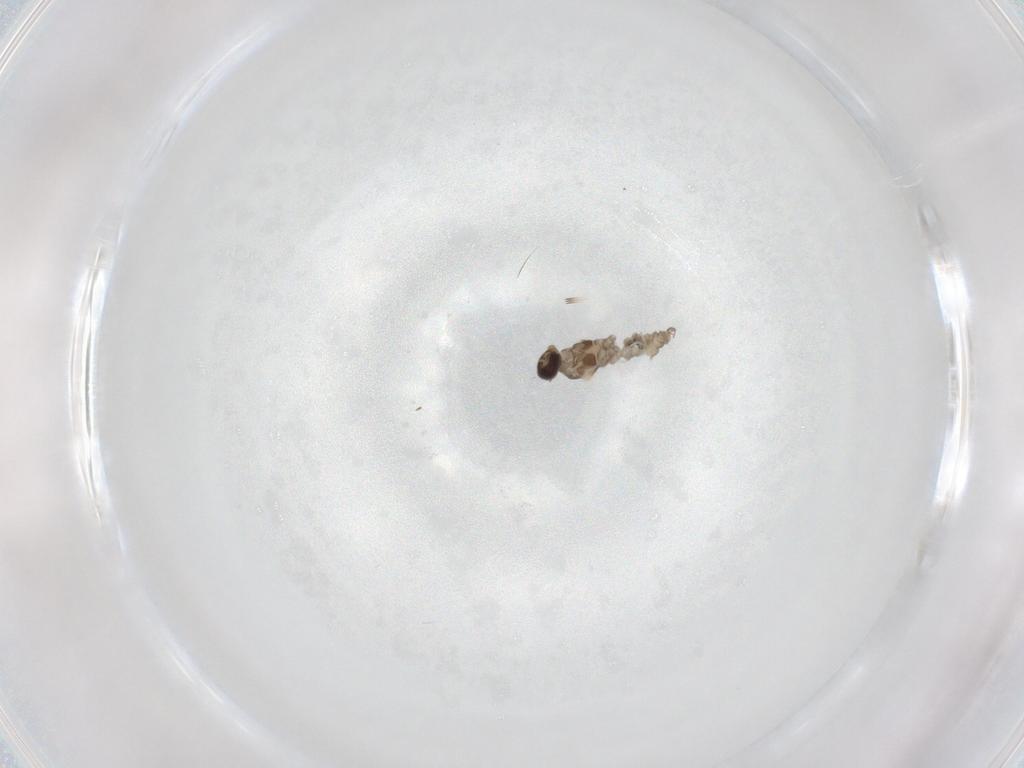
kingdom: Animalia
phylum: Arthropoda
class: Insecta
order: Diptera
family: Cecidomyiidae
